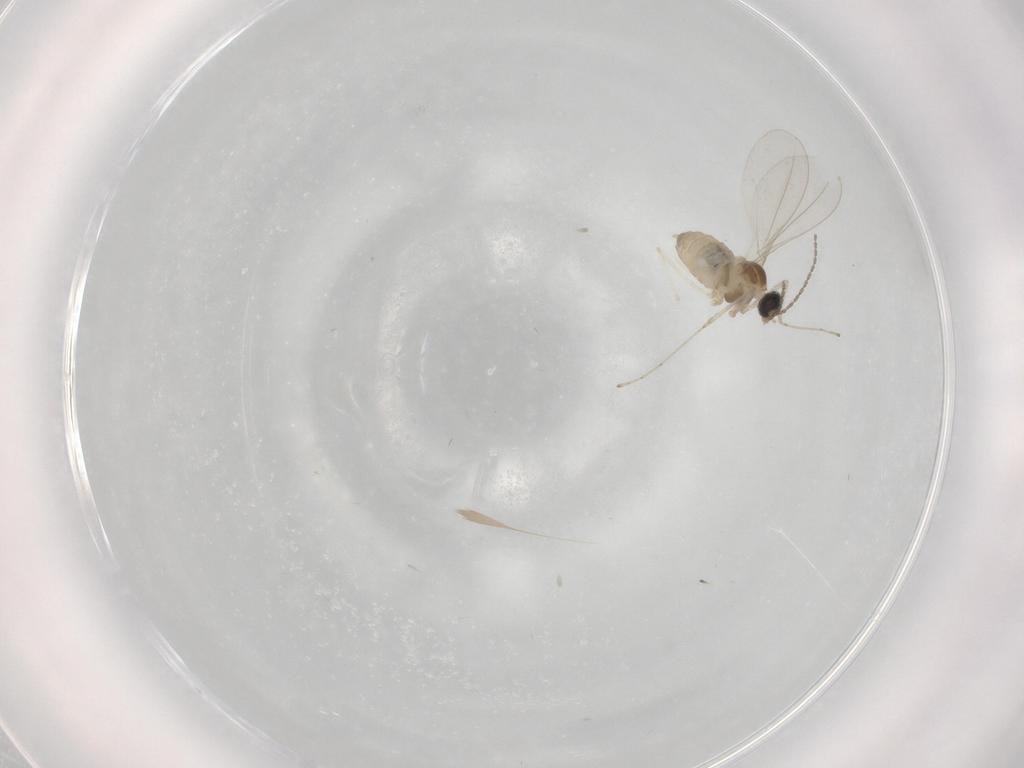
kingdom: Animalia
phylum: Arthropoda
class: Insecta
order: Diptera
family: Cecidomyiidae
